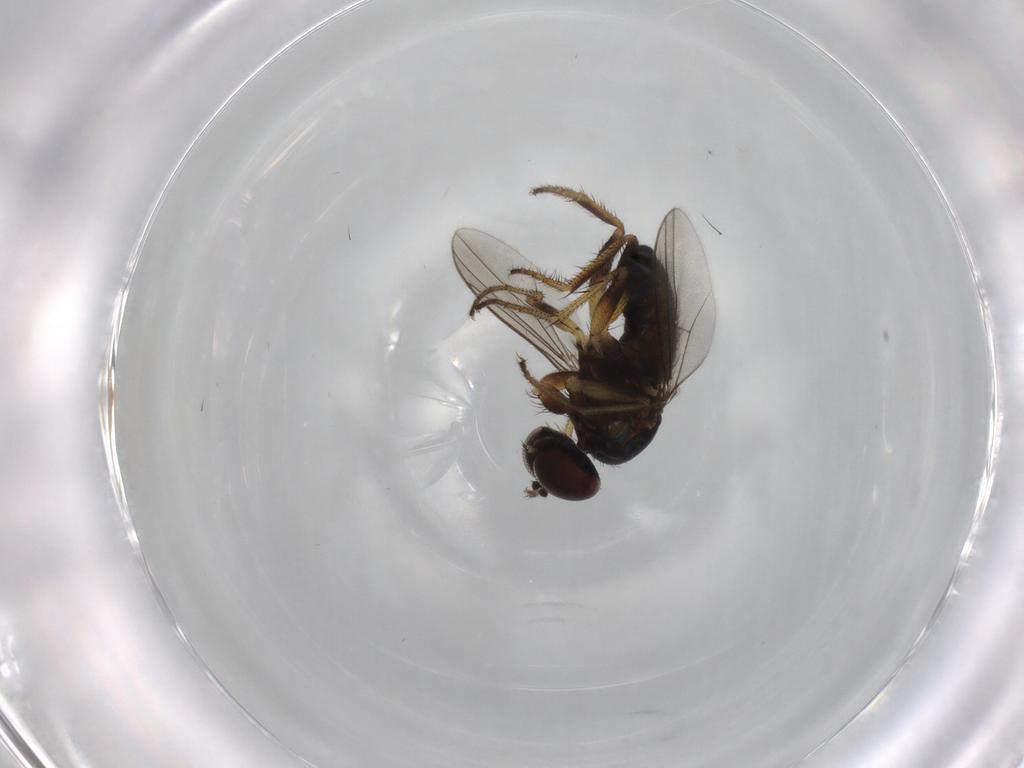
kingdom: Animalia
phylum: Arthropoda
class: Insecta
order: Diptera
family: Dolichopodidae
